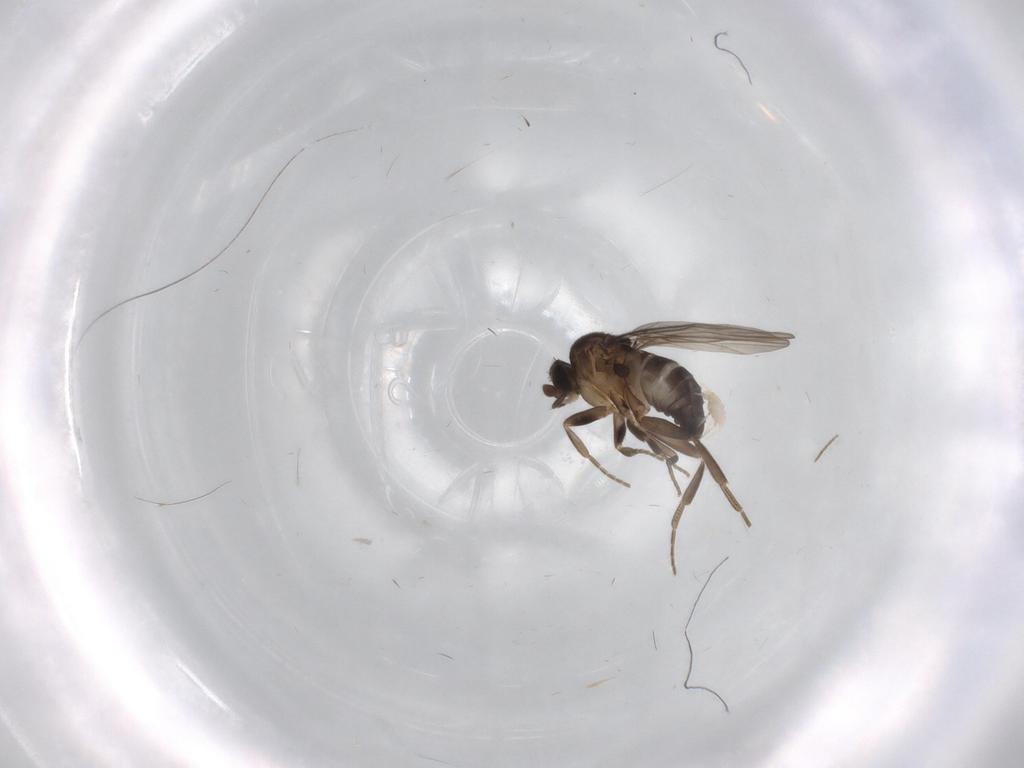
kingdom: Animalia
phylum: Arthropoda
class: Insecta
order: Diptera
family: Phoridae
